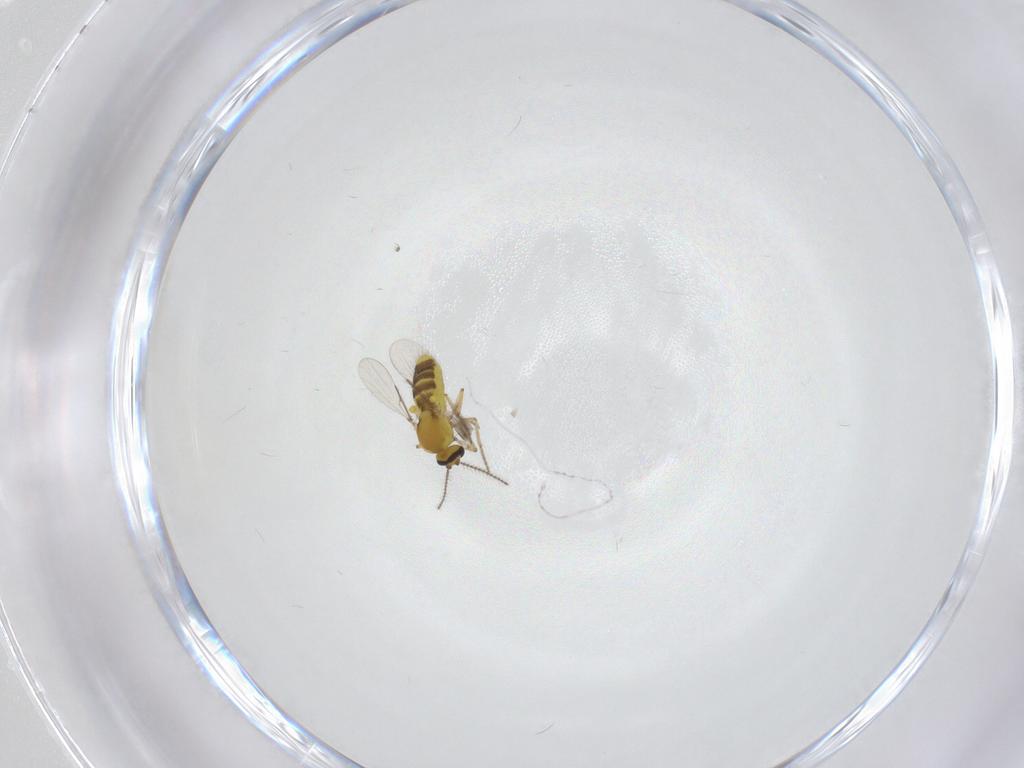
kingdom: Animalia
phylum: Arthropoda
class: Insecta
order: Diptera
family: Psychodidae
